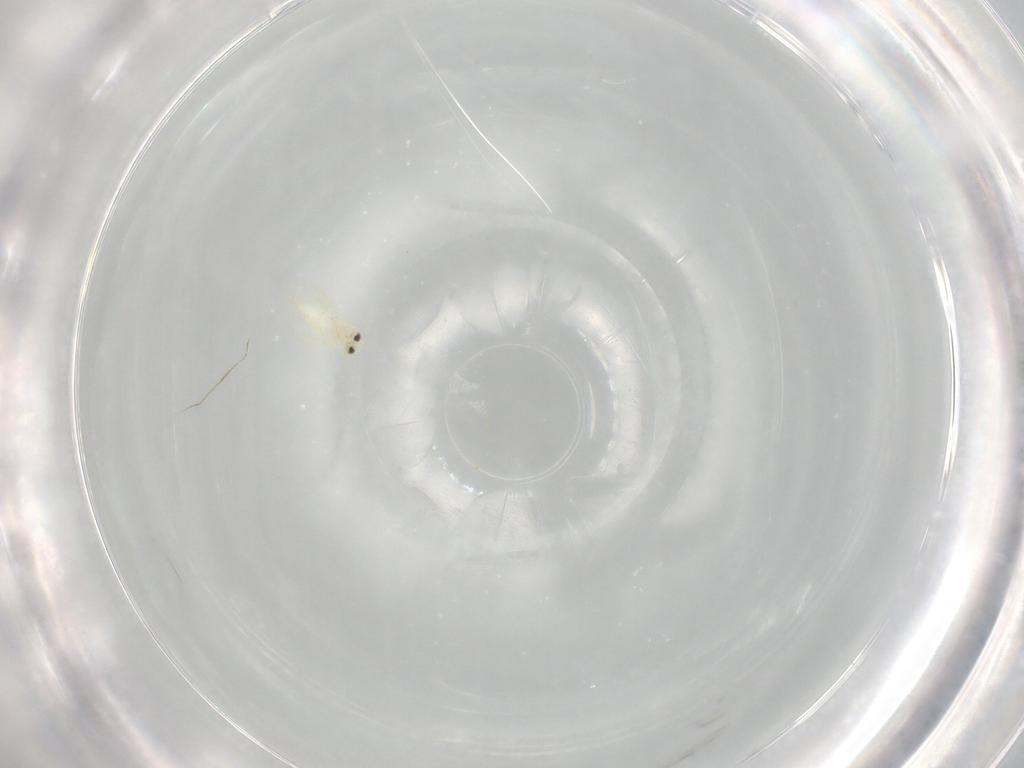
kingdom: Animalia
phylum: Arthropoda
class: Insecta
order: Hemiptera
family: Aleyrodidae
